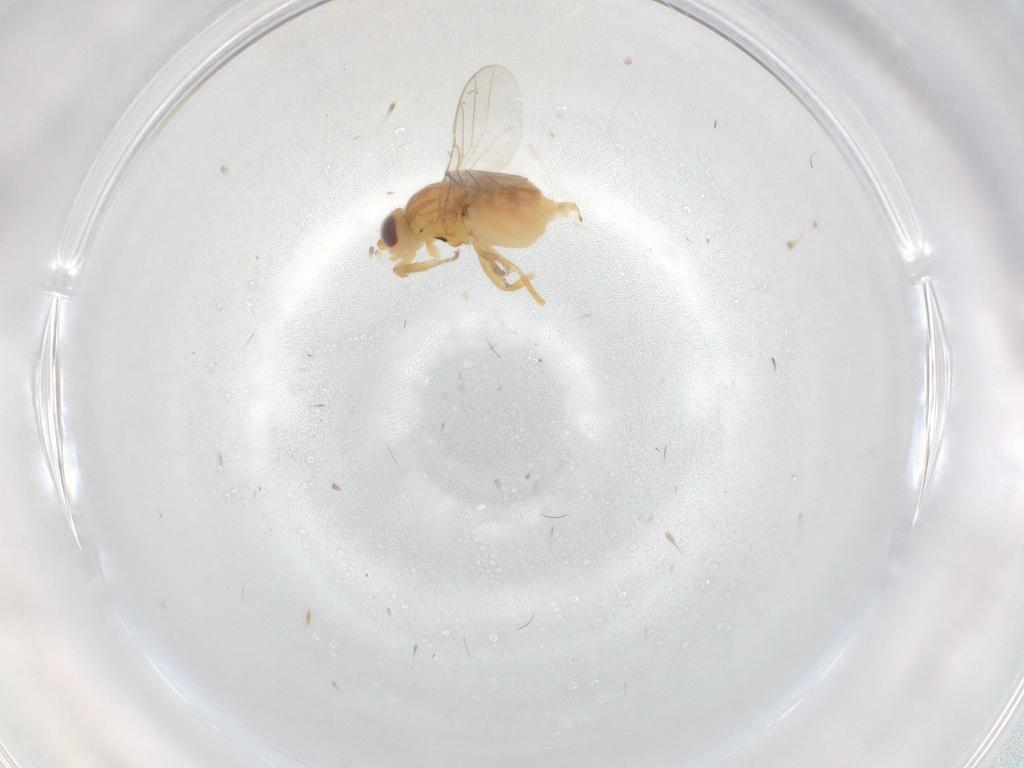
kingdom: Animalia
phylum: Arthropoda
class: Insecta
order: Diptera
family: Chloropidae
